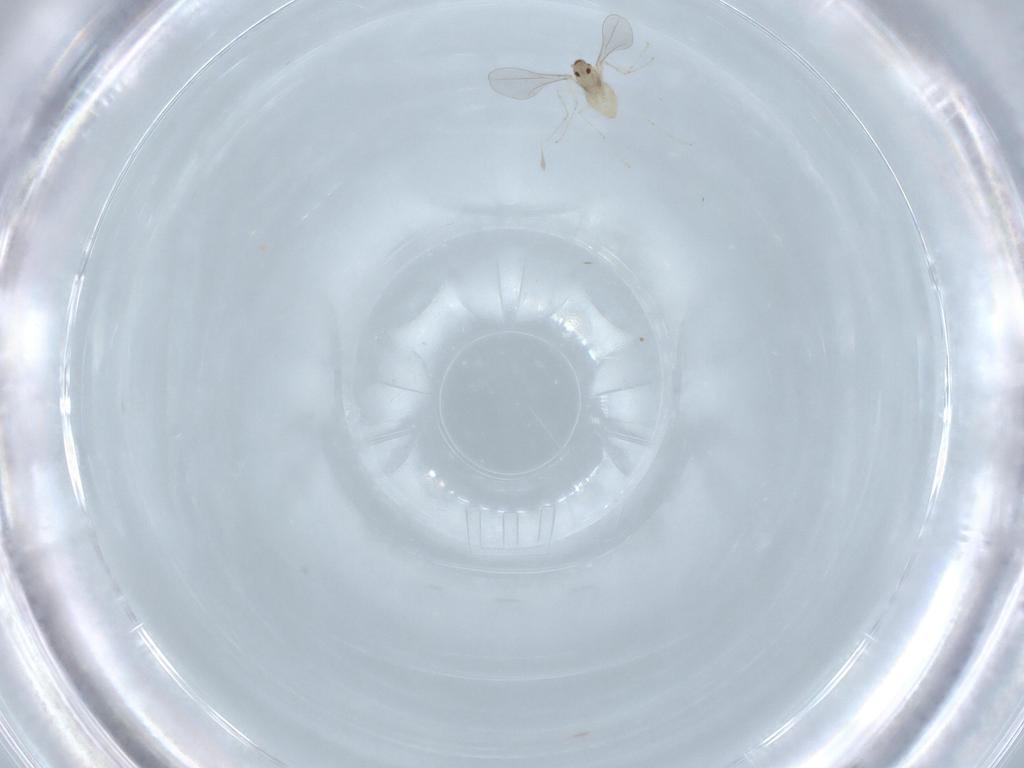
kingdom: Animalia
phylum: Arthropoda
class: Insecta
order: Diptera
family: Cecidomyiidae
